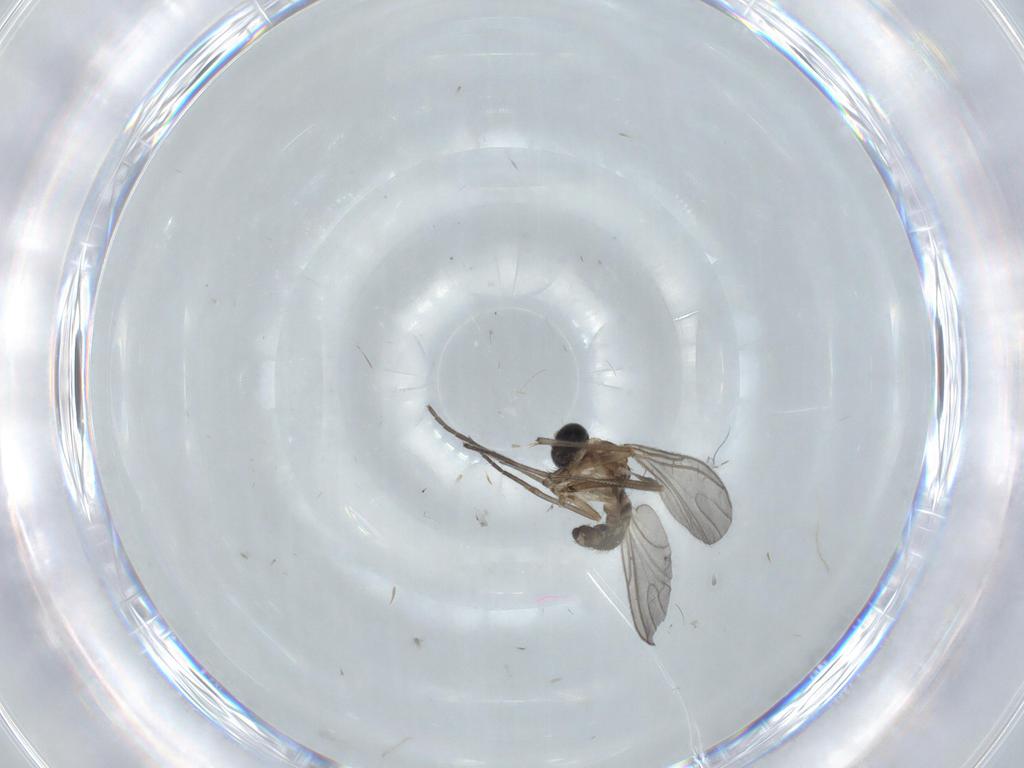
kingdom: Animalia
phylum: Arthropoda
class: Insecta
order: Diptera
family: Sciaridae
